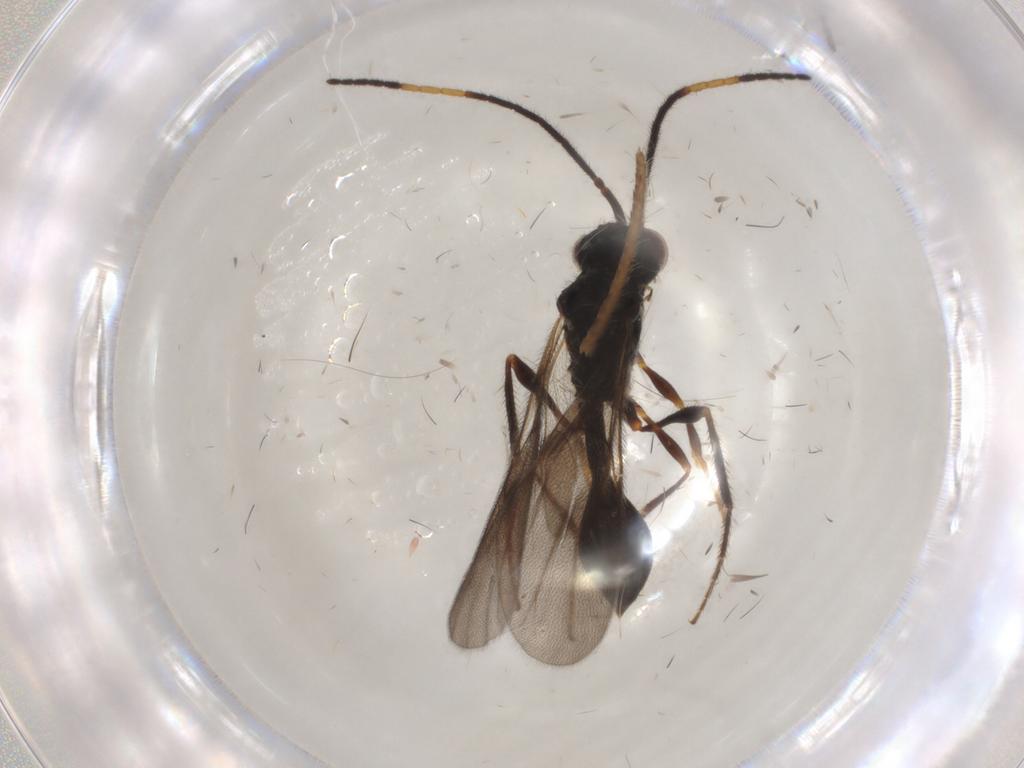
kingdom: Animalia
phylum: Arthropoda
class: Insecta
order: Hymenoptera
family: Diapriidae
